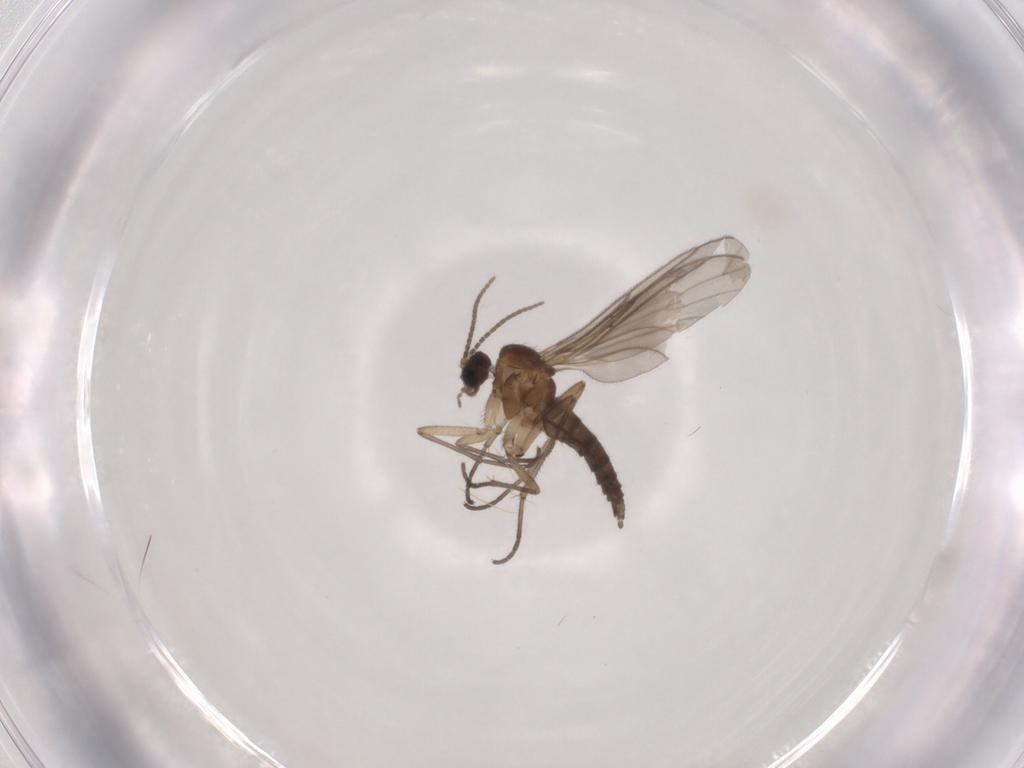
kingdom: Animalia
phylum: Arthropoda
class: Insecta
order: Diptera
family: Sciaridae
